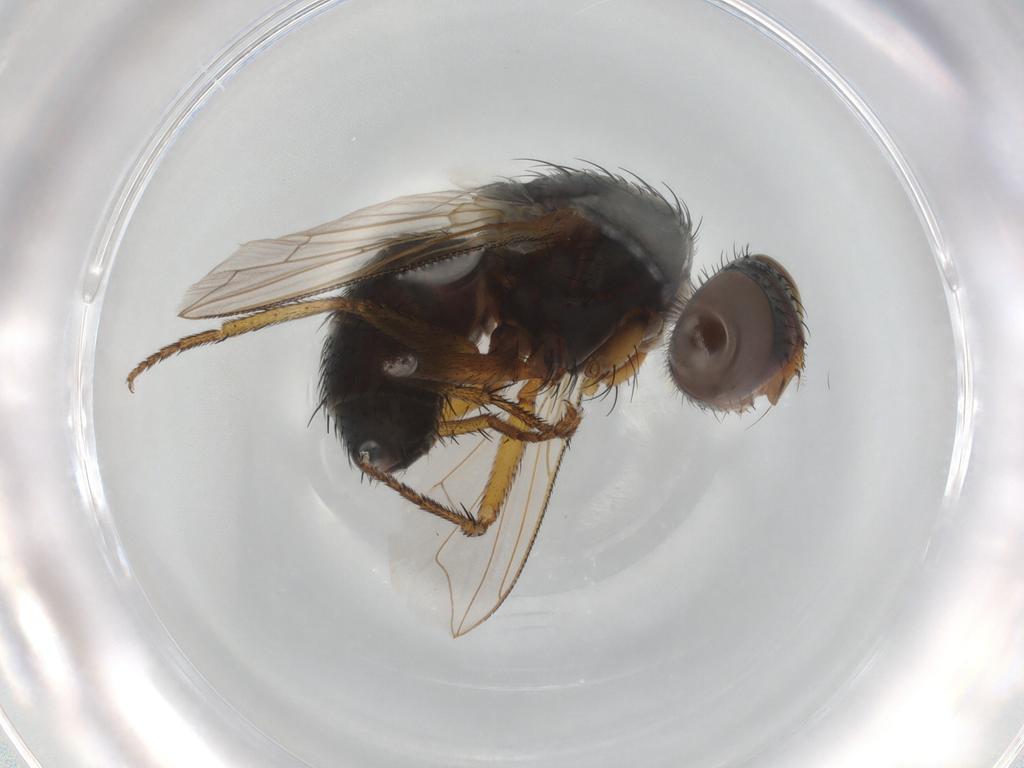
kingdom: Animalia
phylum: Arthropoda
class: Insecta
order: Diptera
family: Sarcophagidae
